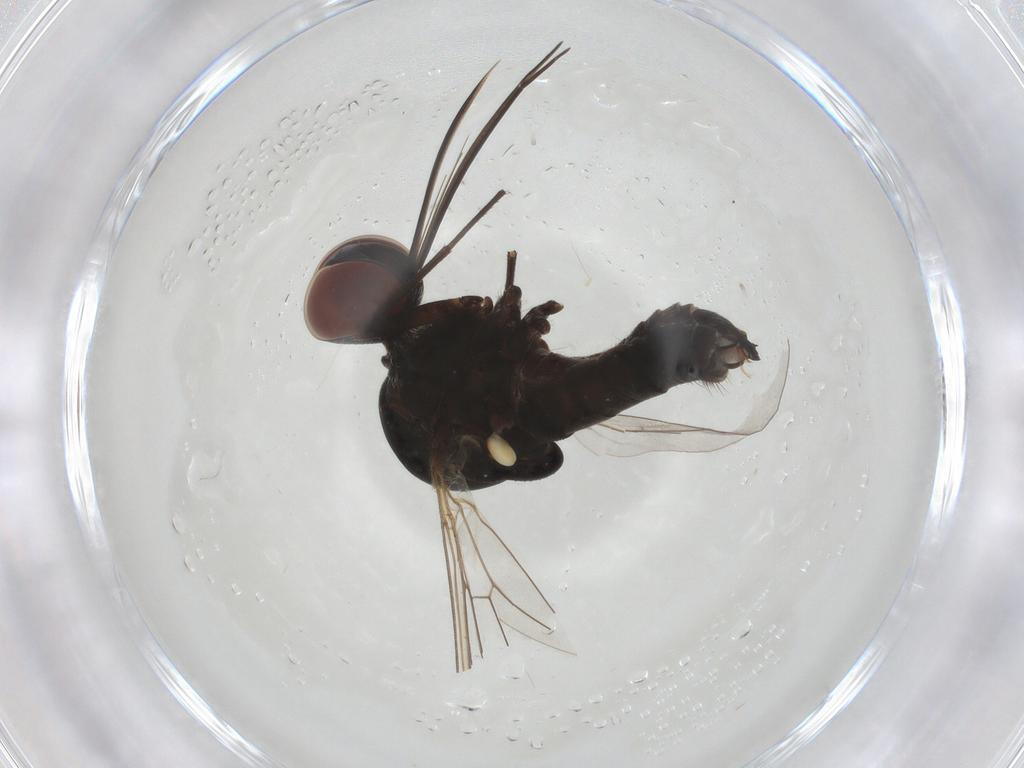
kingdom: Animalia
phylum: Arthropoda
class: Insecta
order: Diptera
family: Bombyliidae
